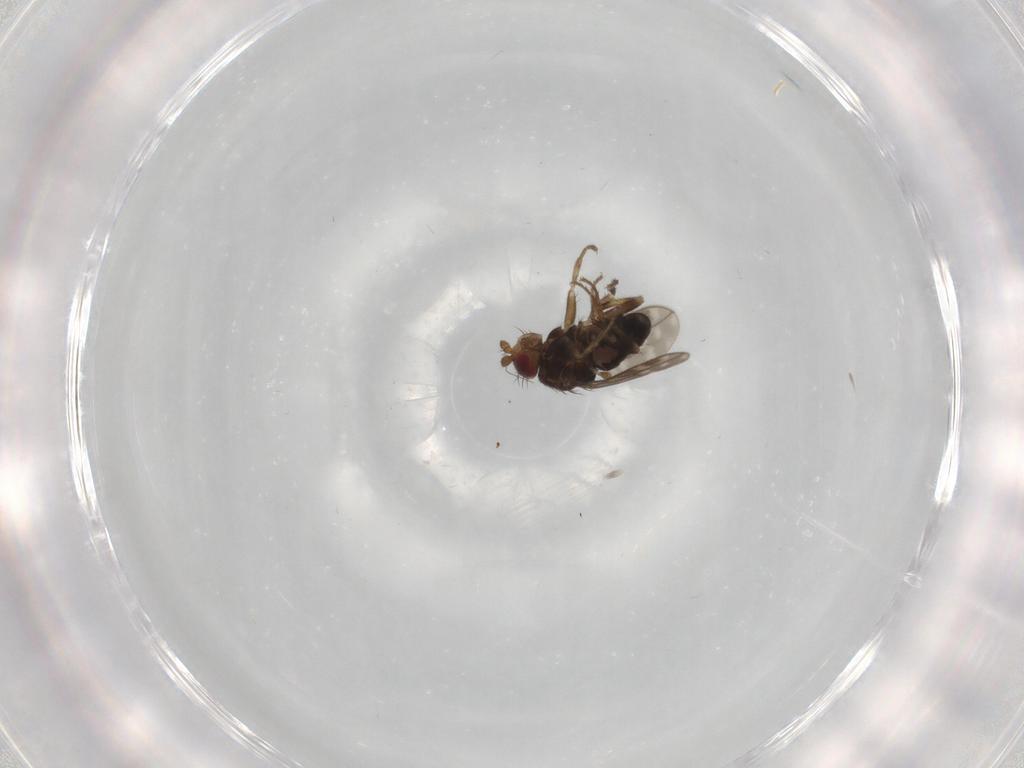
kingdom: Animalia
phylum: Arthropoda
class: Insecta
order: Diptera
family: Sphaeroceridae
